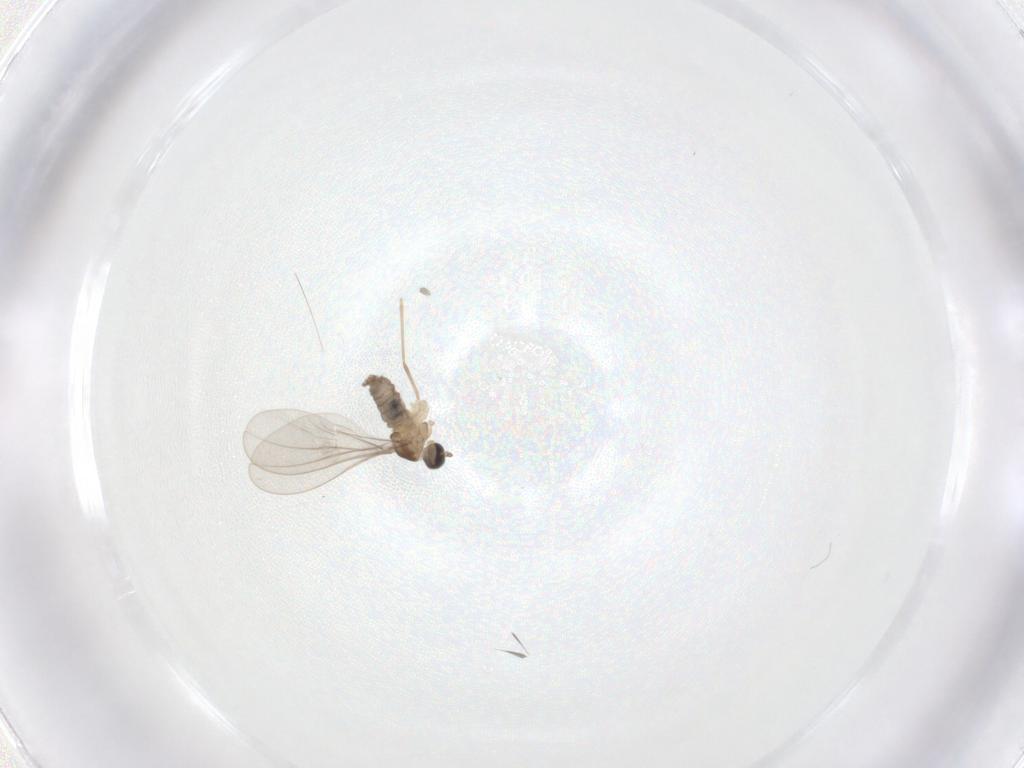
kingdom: Animalia
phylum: Arthropoda
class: Insecta
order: Diptera
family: Cecidomyiidae
